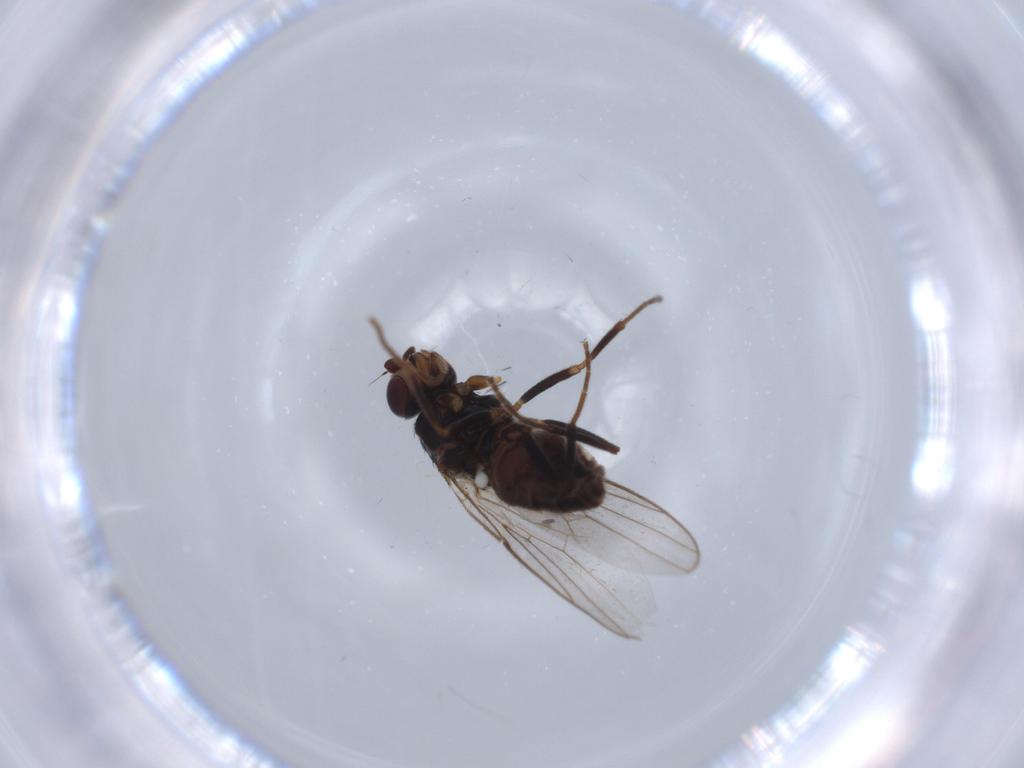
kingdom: Animalia
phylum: Arthropoda
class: Insecta
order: Diptera
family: Chloropidae
